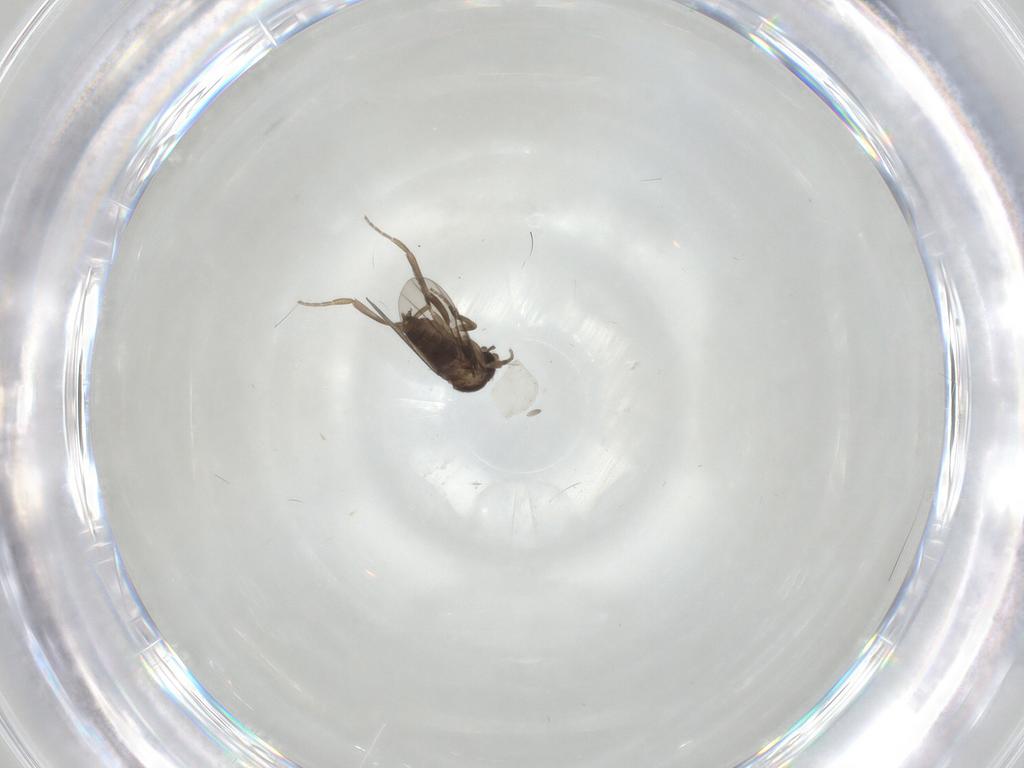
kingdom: Animalia
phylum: Arthropoda
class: Insecta
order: Diptera
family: Phoridae
